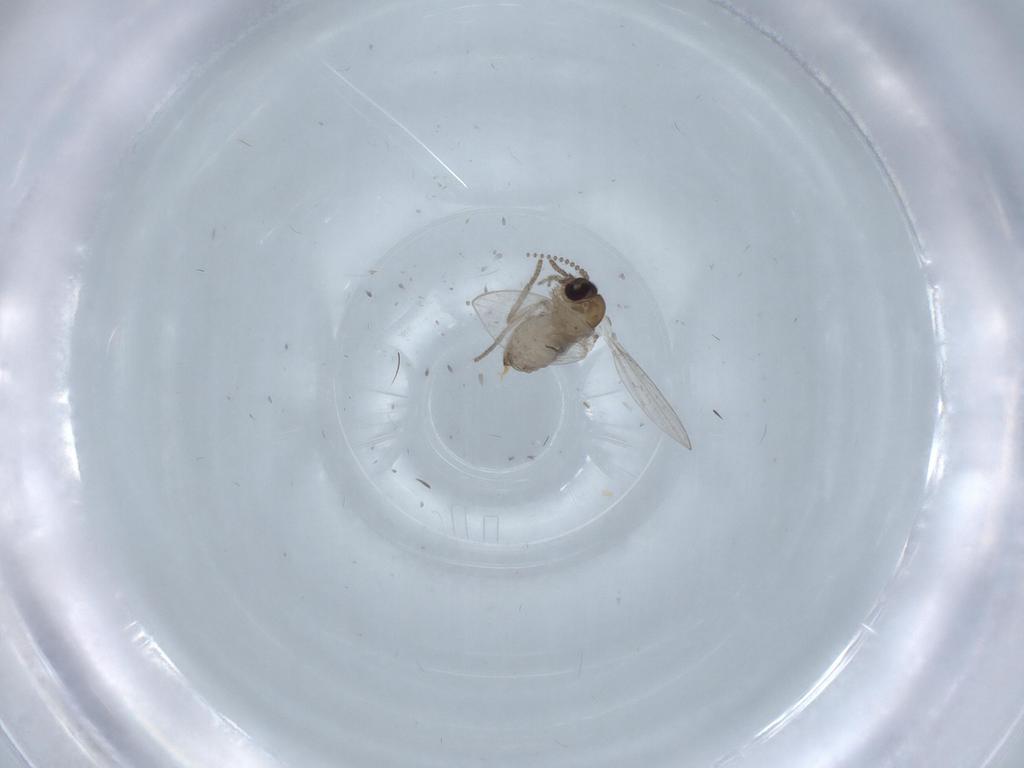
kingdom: Animalia
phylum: Arthropoda
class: Insecta
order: Diptera
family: Psychodidae
